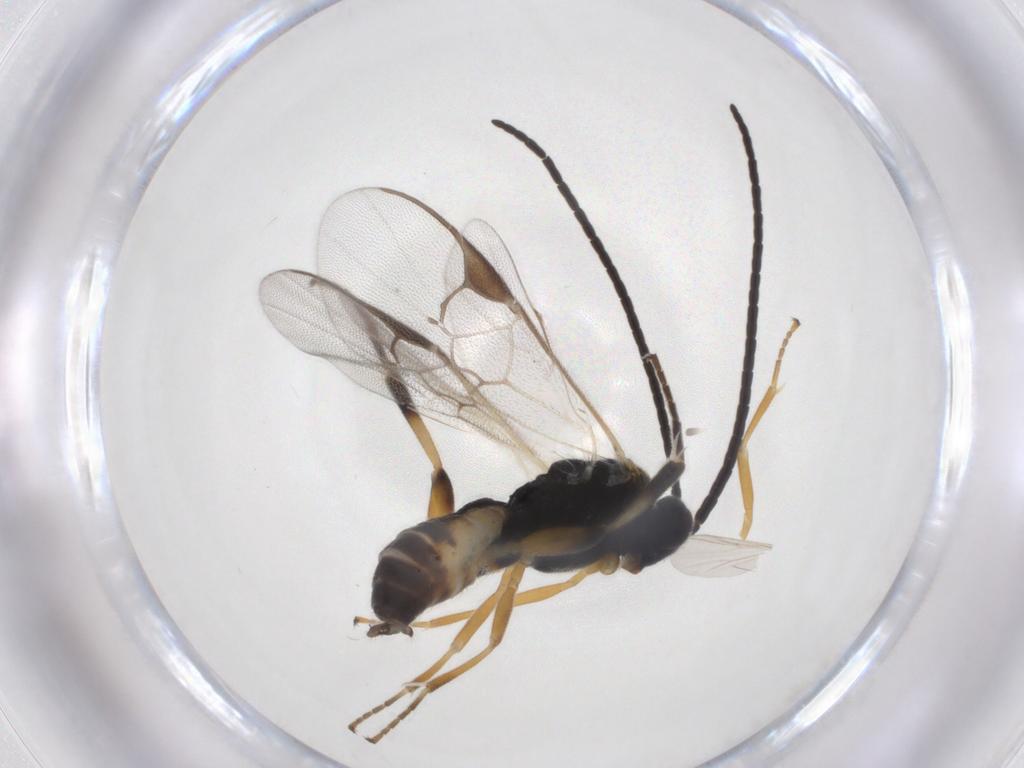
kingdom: Animalia
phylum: Arthropoda
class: Insecta
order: Hymenoptera
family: Braconidae
